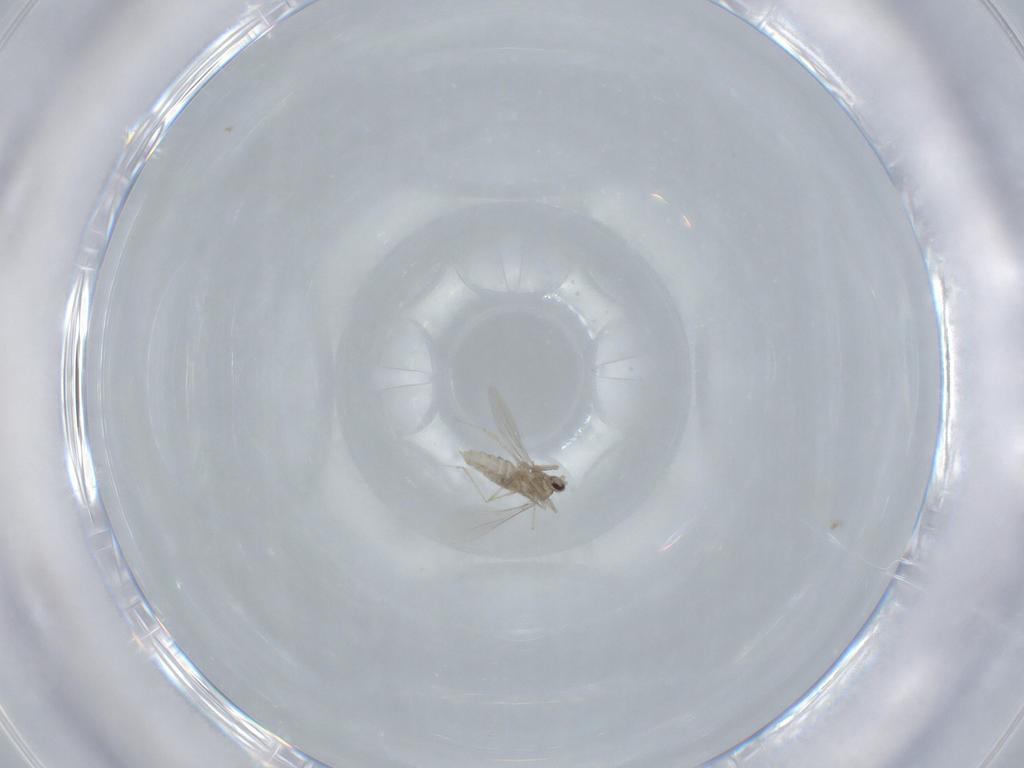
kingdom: Animalia
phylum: Arthropoda
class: Insecta
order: Diptera
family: Cecidomyiidae
